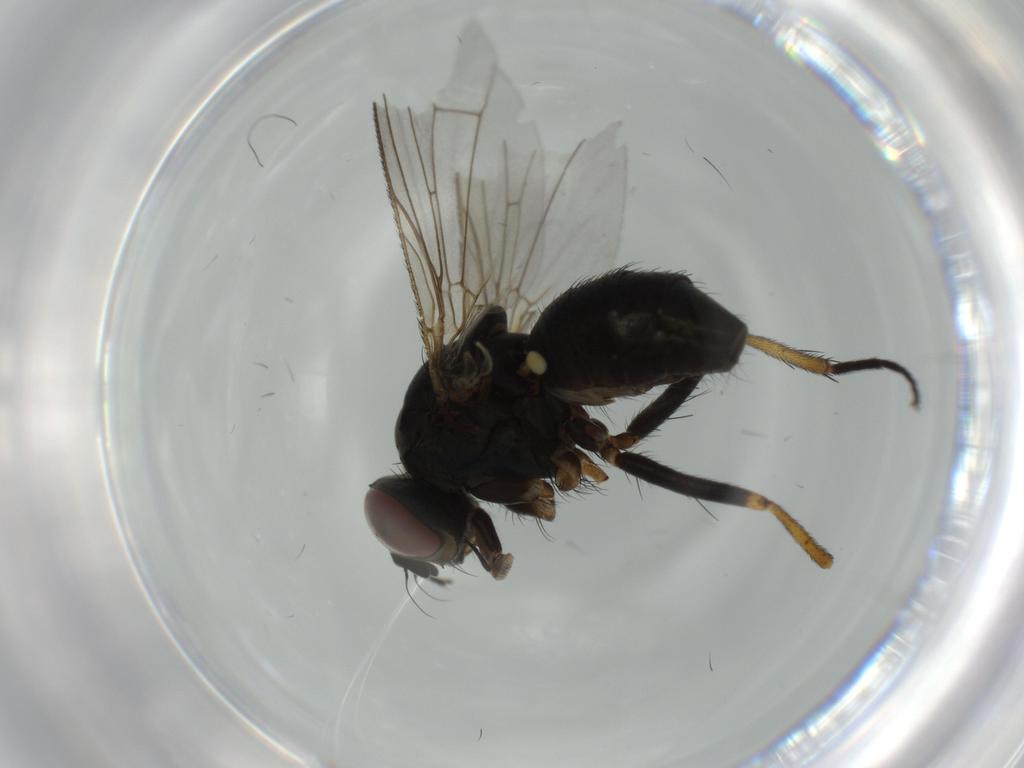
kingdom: Animalia
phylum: Arthropoda
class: Insecta
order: Diptera
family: Muscidae
